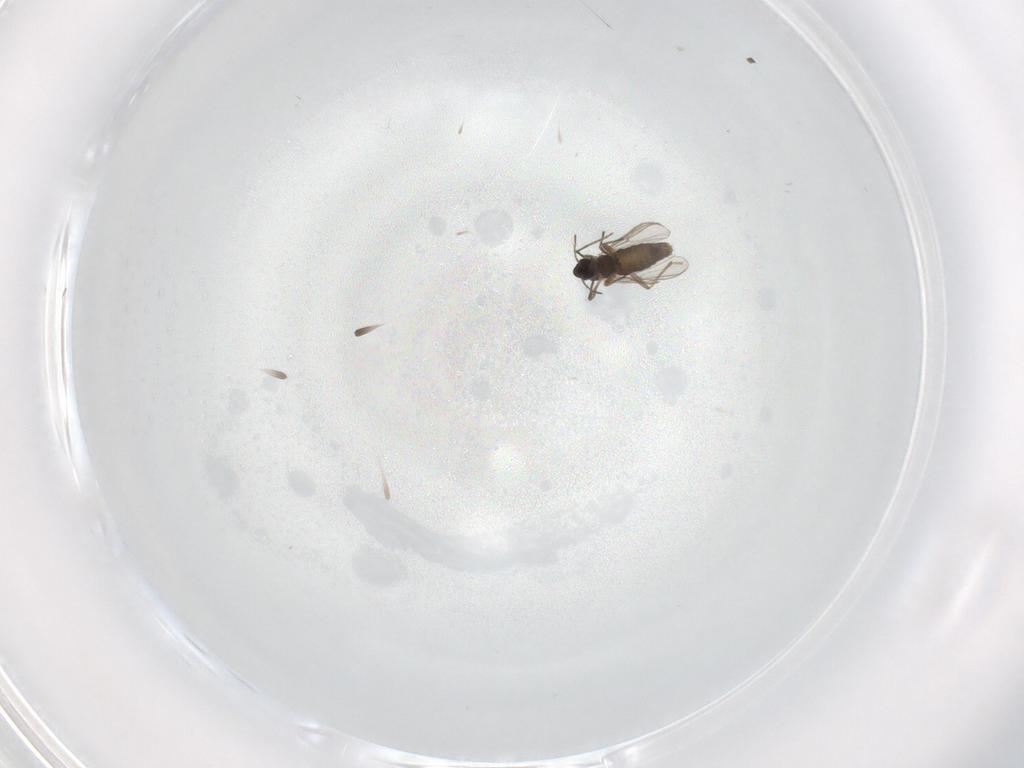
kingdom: Animalia
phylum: Arthropoda
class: Insecta
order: Diptera
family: Chironomidae
